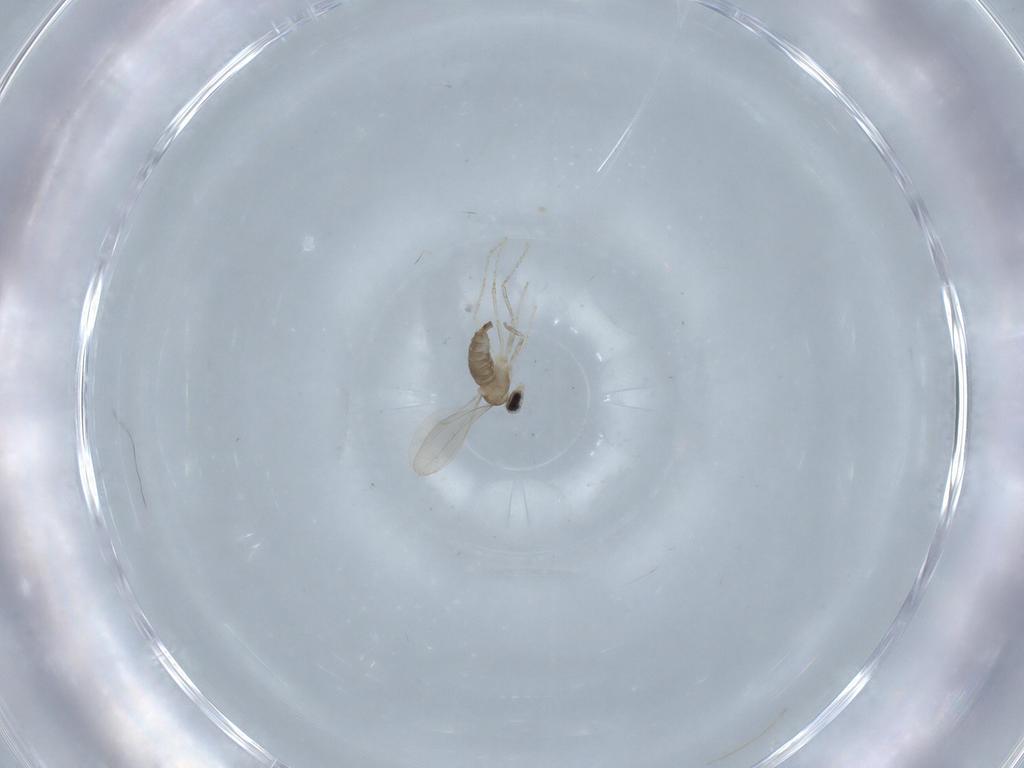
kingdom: Animalia
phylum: Arthropoda
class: Insecta
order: Diptera
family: Cecidomyiidae
